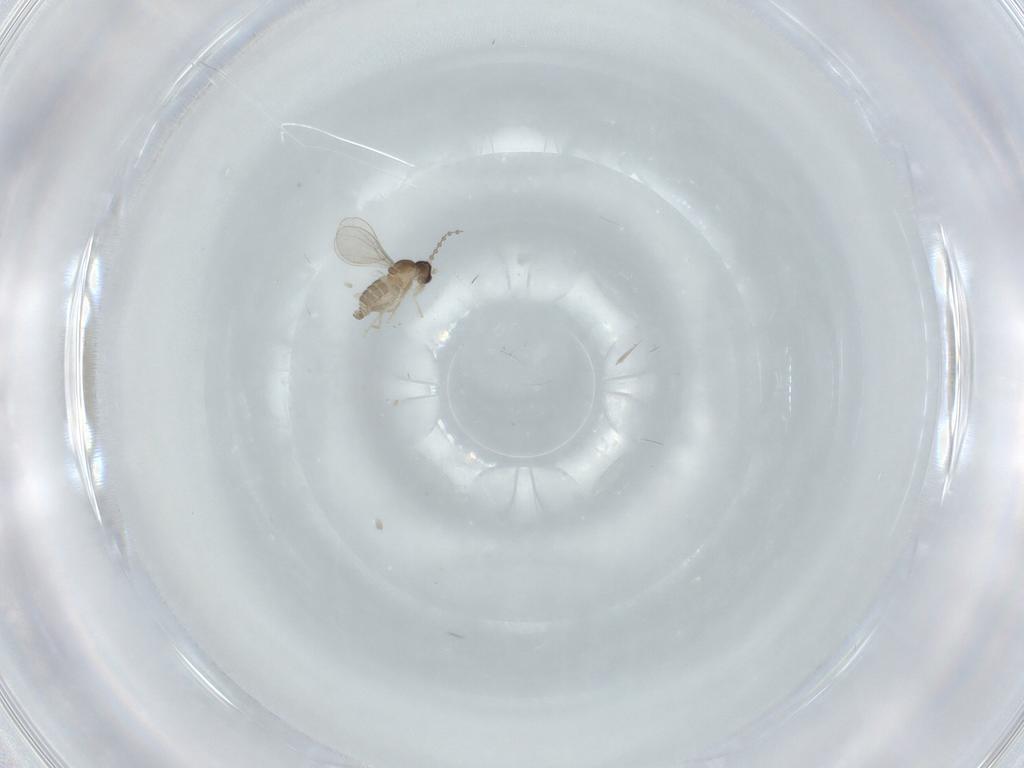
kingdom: Animalia
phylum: Arthropoda
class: Insecta
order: Diptera
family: Cecidomyiidae
